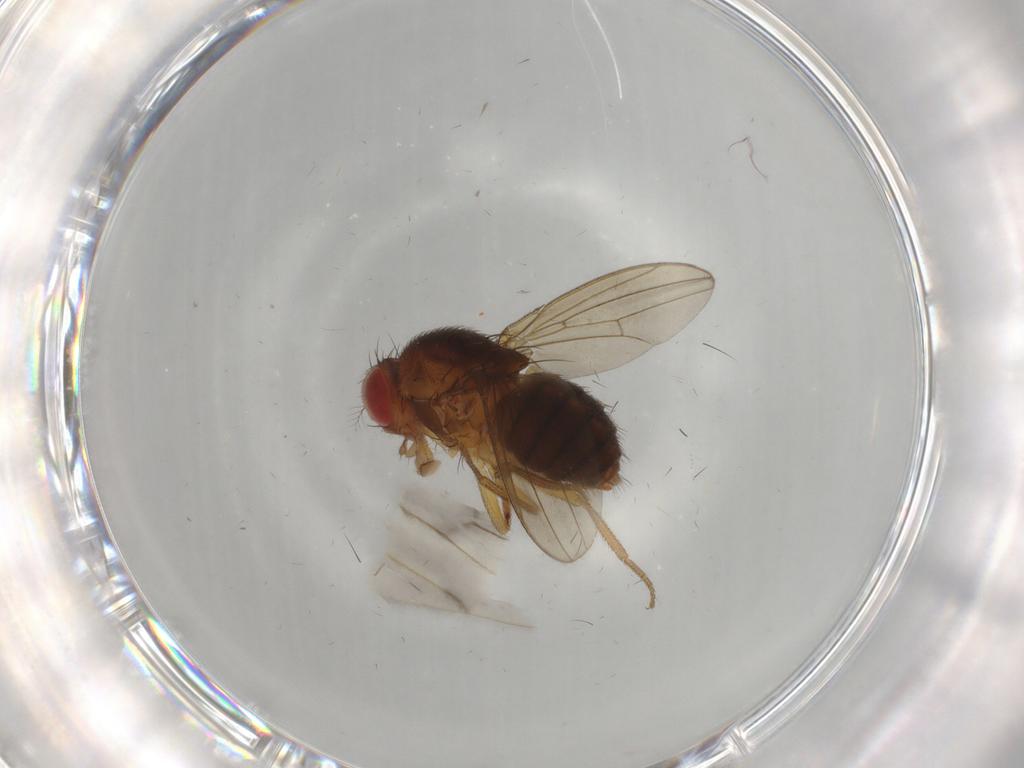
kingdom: Animalia
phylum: Arthropoda
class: Insecta
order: Diptera
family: Drosophilidae
